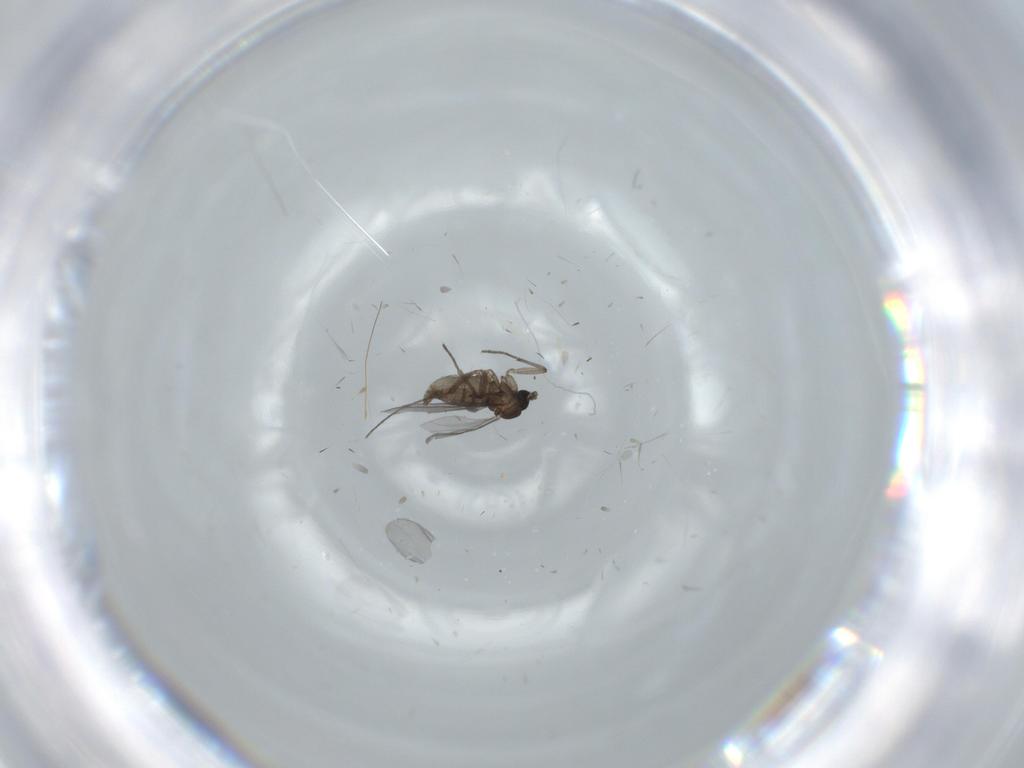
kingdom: Animalia
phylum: Arthropoda
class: Insecta
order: Diptera
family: Sciaridae
